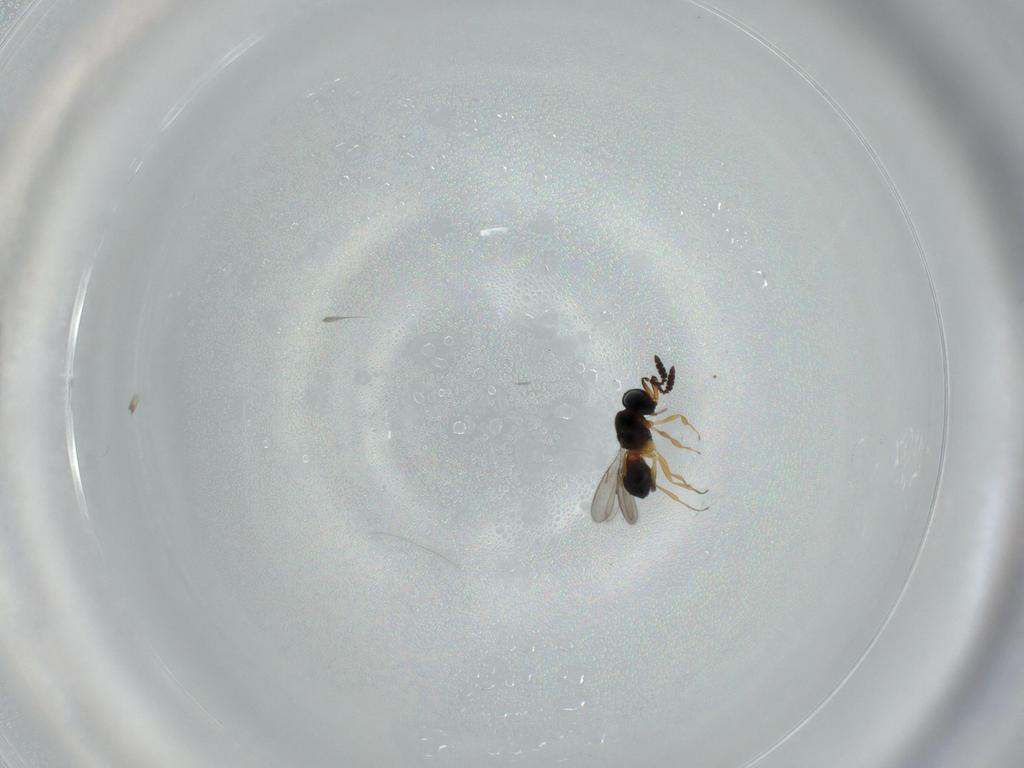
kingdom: Animalia
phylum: Arthropoda
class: Insecta
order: Hymenoptera
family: Scelionidae
